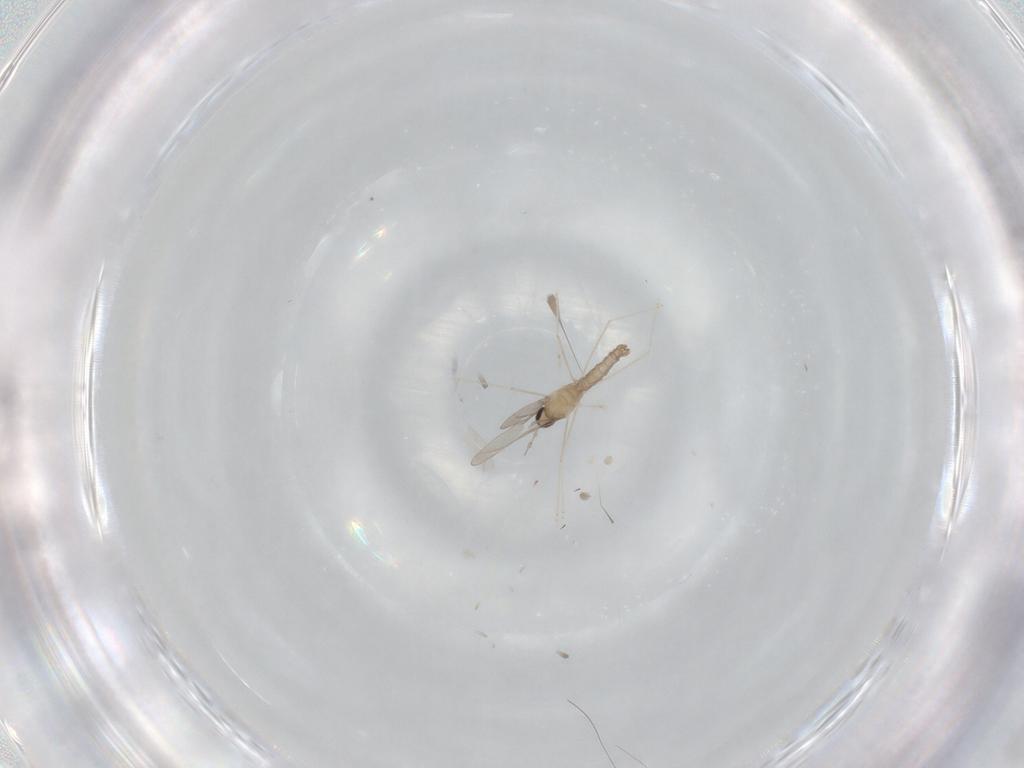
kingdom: Animalia
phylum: Arthropoda
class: Insecta
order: Diptera
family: Cecidomyiidae
